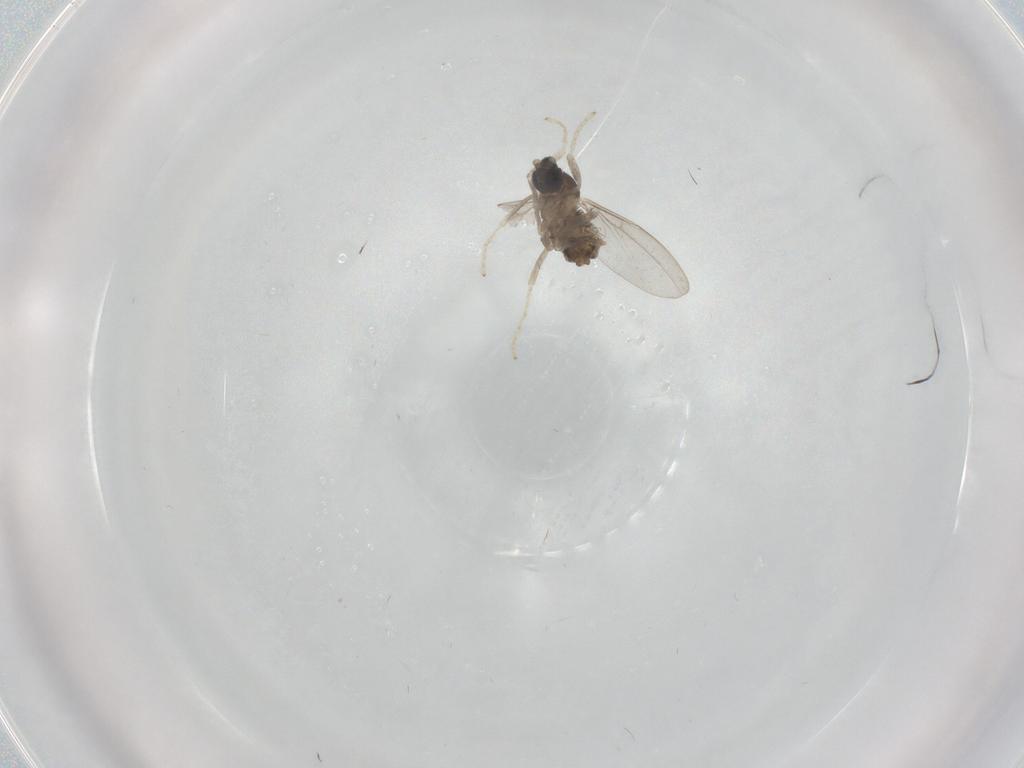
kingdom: Animalia
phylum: Arthropoda
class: Insecta
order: Diptera
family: Cecidomyiidae
